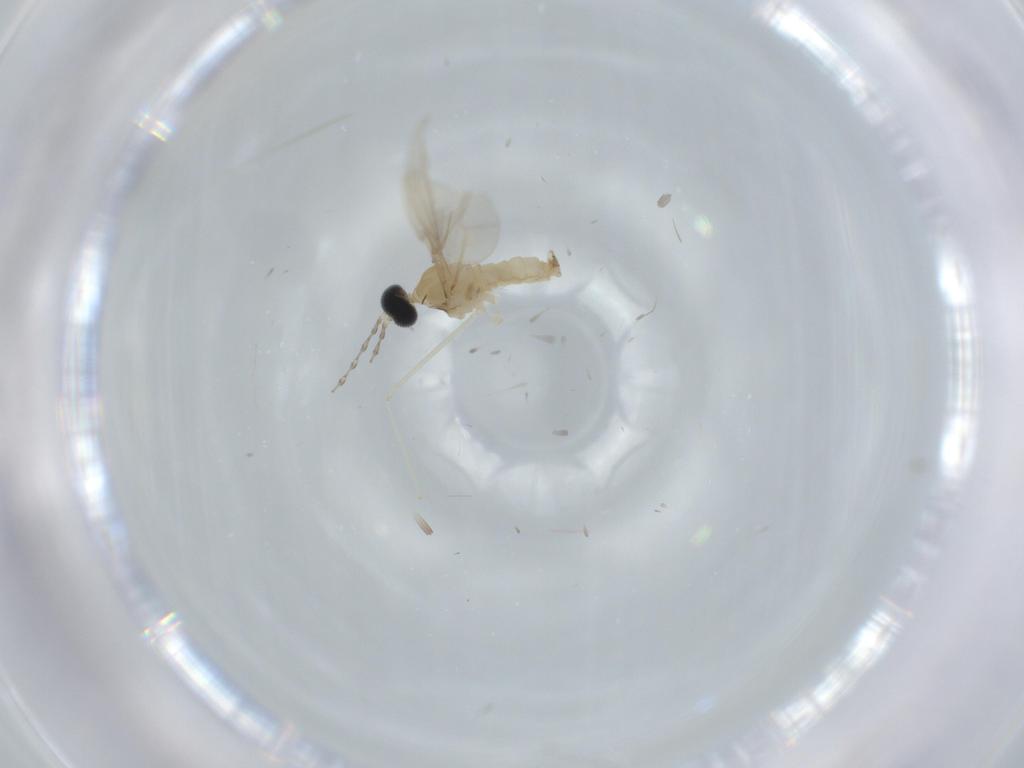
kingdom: Animalia
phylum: Arthropoda
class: Insecta
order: Diptera
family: Cecidomyiidae
